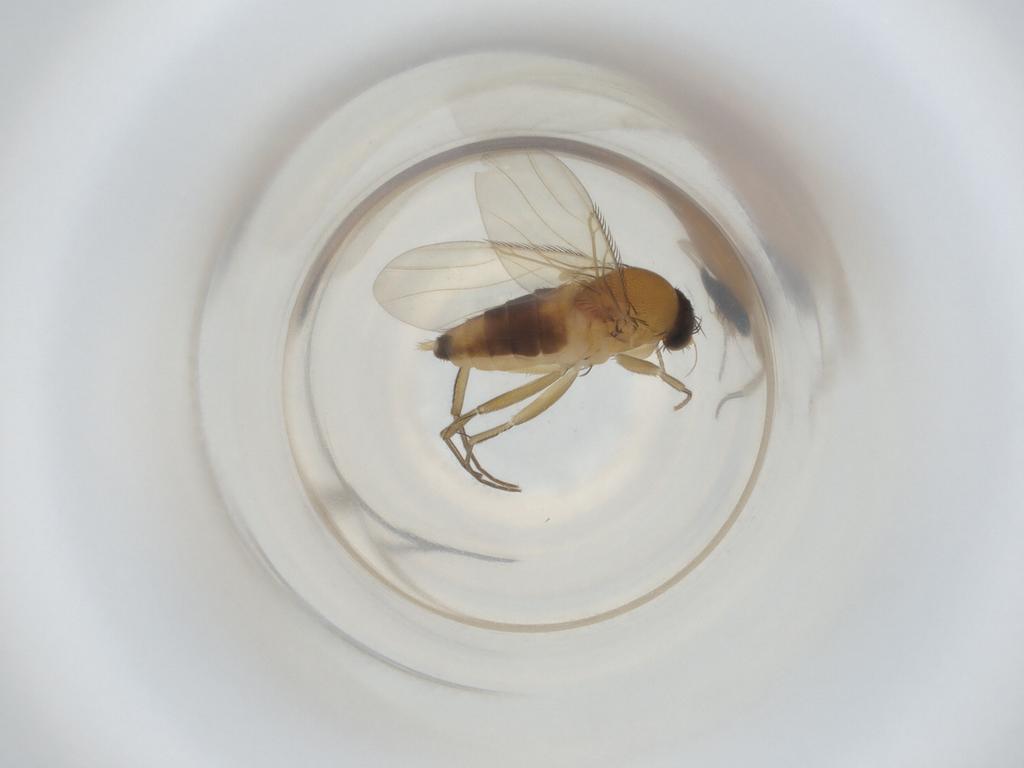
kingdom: Animalia
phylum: Arthropoda
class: Insecta
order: Diptera
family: Phoridae
